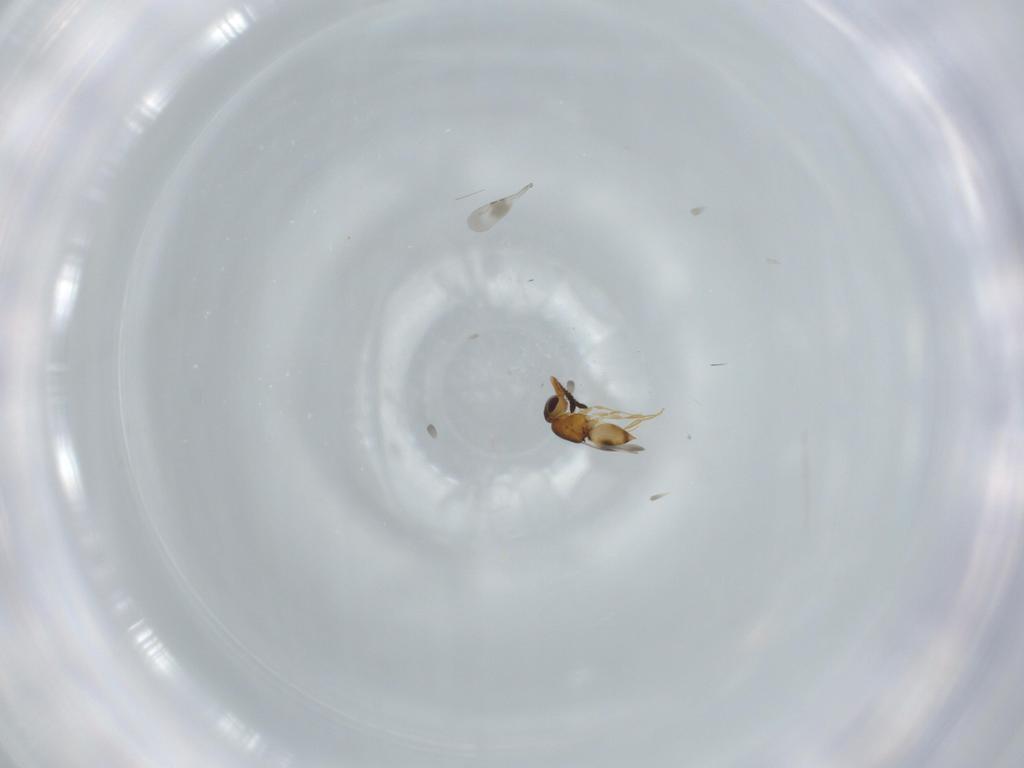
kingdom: Animalia
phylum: Arthropoda
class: Insecta
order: Hymenoptera
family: Ceraphronidae
